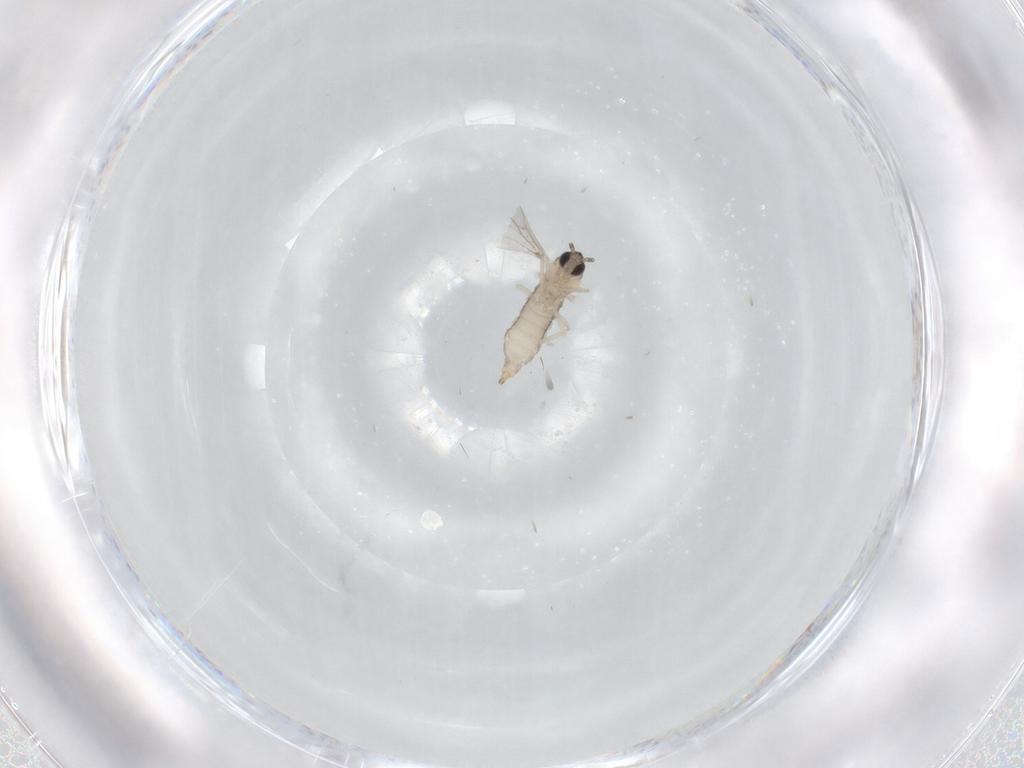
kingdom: Animalia
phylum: Arthropoda
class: Insecta
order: Diptera
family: Cecidomyiidae
